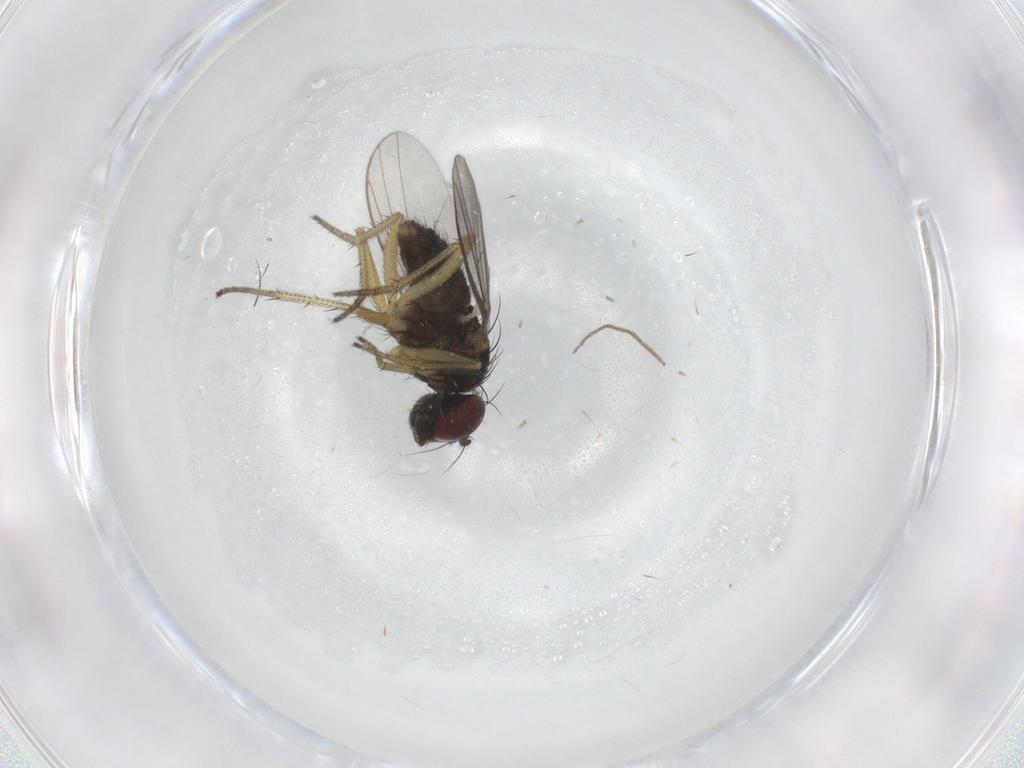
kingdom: Animalia
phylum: Arthropoda
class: Insecta
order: Diptera
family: Chironomidae
